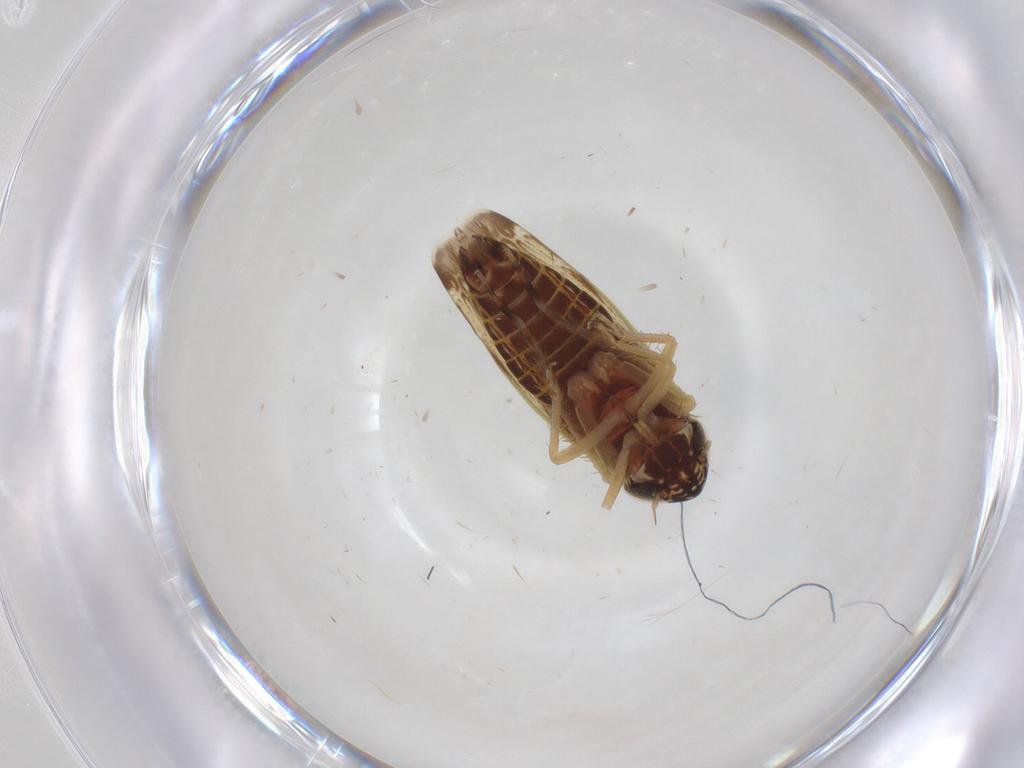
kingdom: Animalia
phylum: Arthropoda
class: Insecta
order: Hemiptera
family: Cicadellidae
